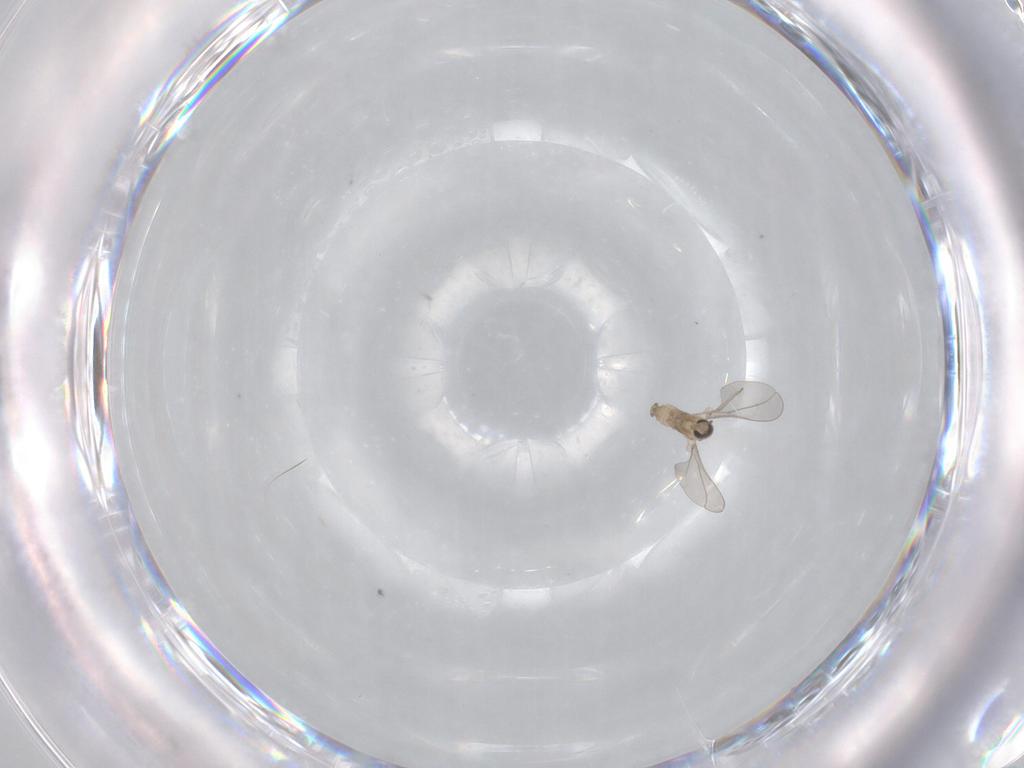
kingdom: Animalia
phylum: Arthropoda
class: Insecta
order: Diptera
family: Cecidomyiidae
